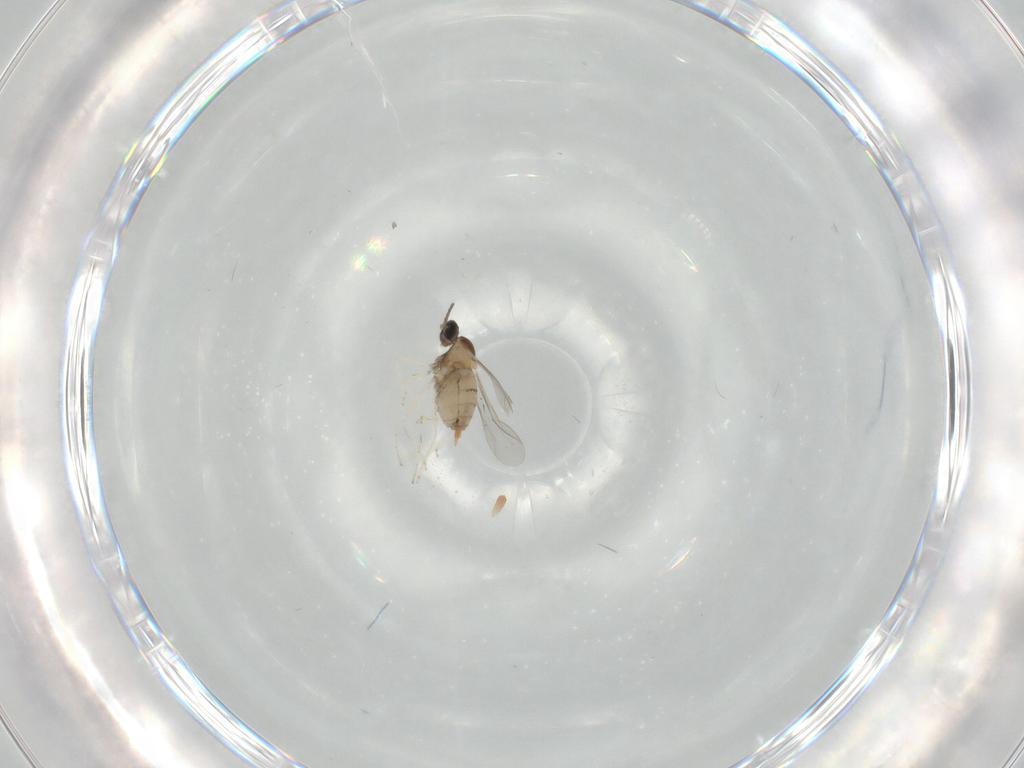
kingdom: Animalia
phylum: Arthropoda
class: Insecta
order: Diptera
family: Cecidomyiidae
